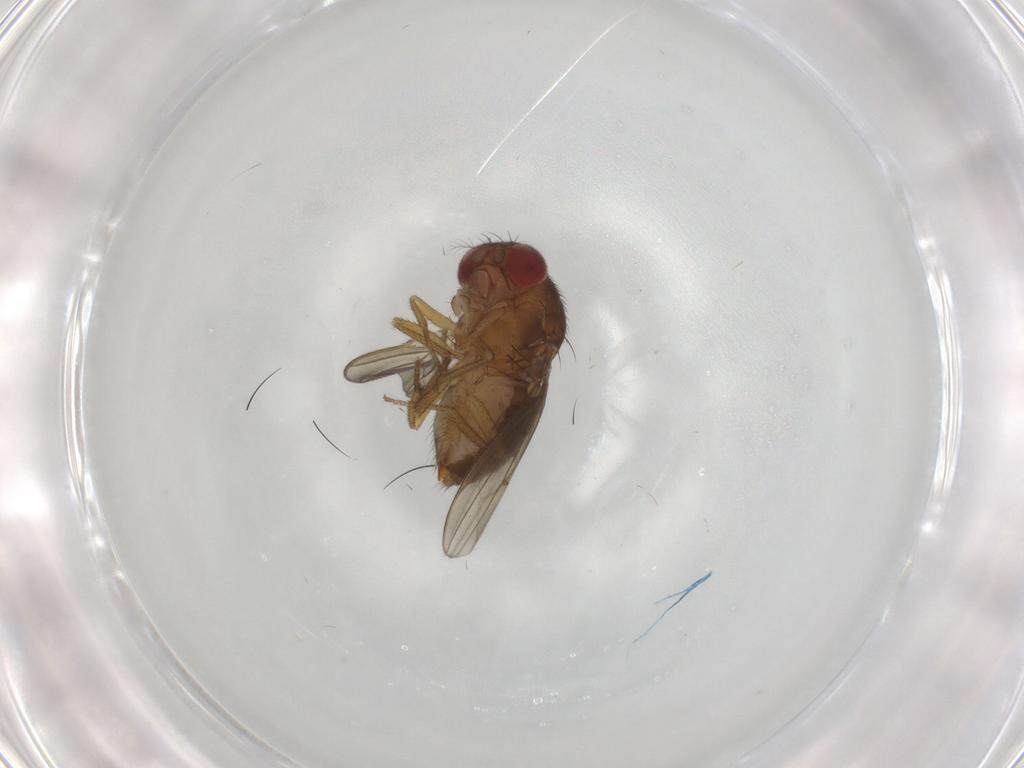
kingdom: Animalia
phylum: Arthropoda
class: Insecta
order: Diptera
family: Drosophilidae
